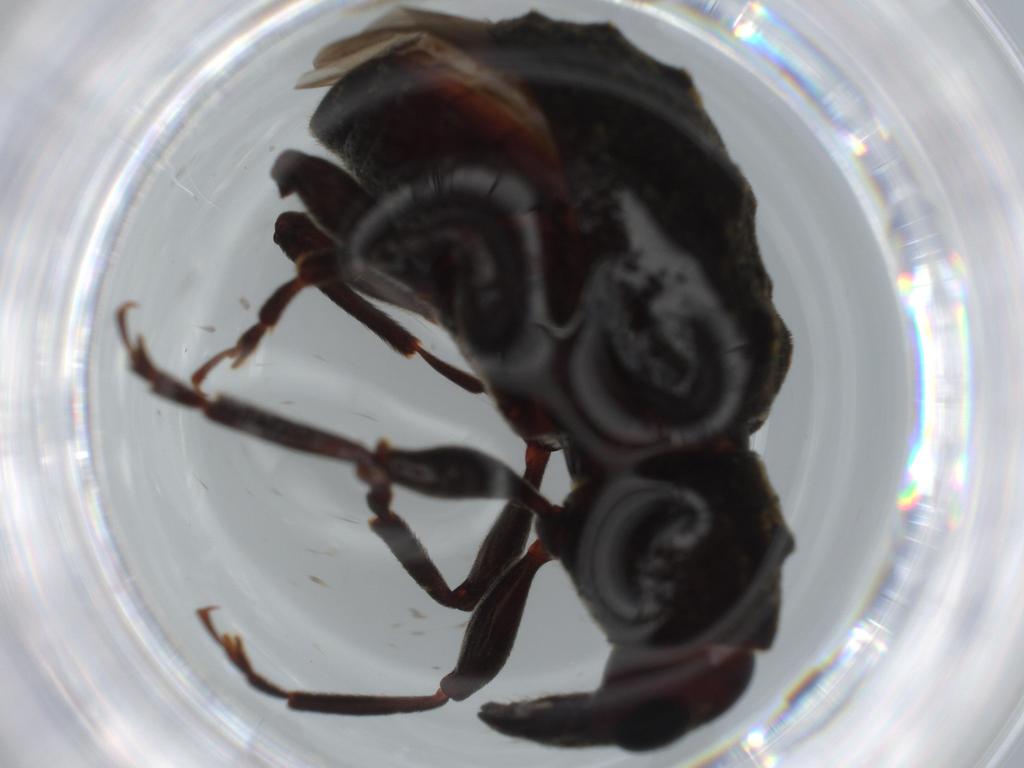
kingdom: Animalia
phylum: Arthropoda
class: Insecta
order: Coleoptera
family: Anthribidae
